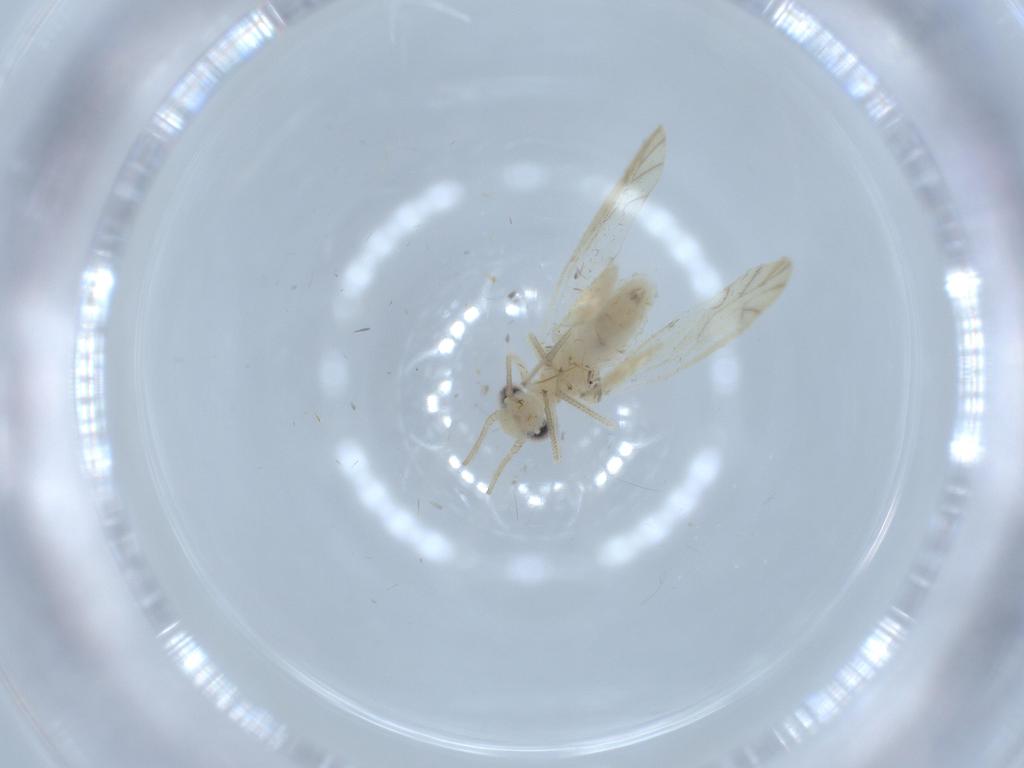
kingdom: Animalia
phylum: Arthropoda
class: Insecta
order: Psocodea
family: Caeciliusidae
